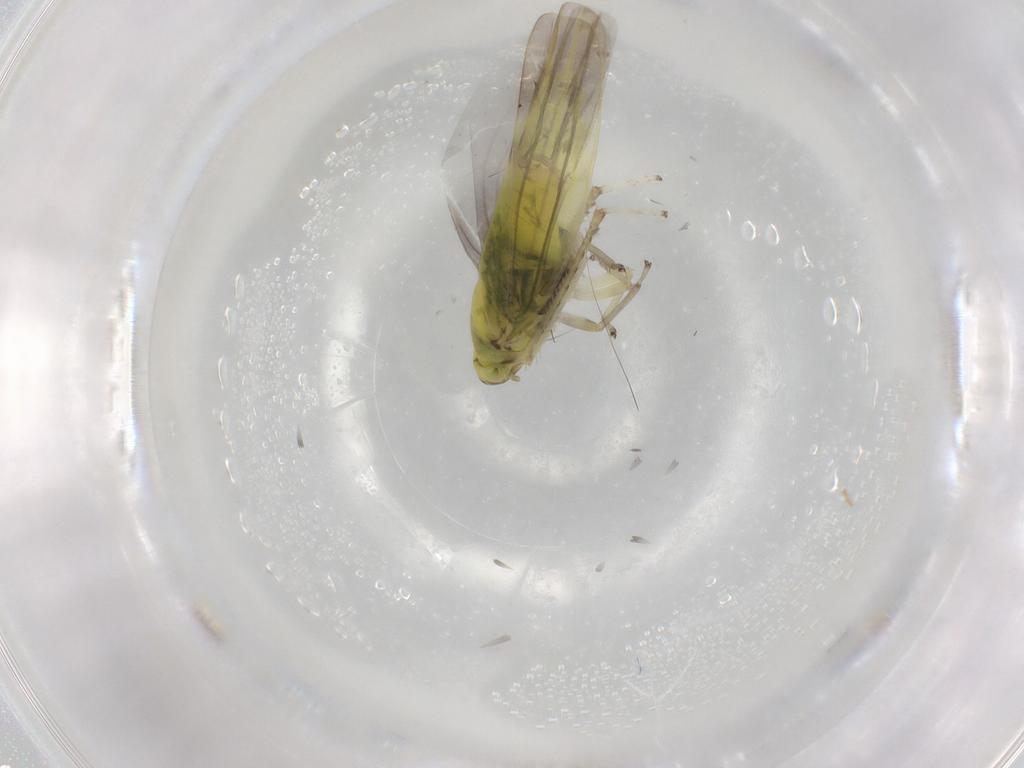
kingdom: Animalia
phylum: Arthropoda
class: Insecta
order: Hemiptera
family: Cicadellidae
